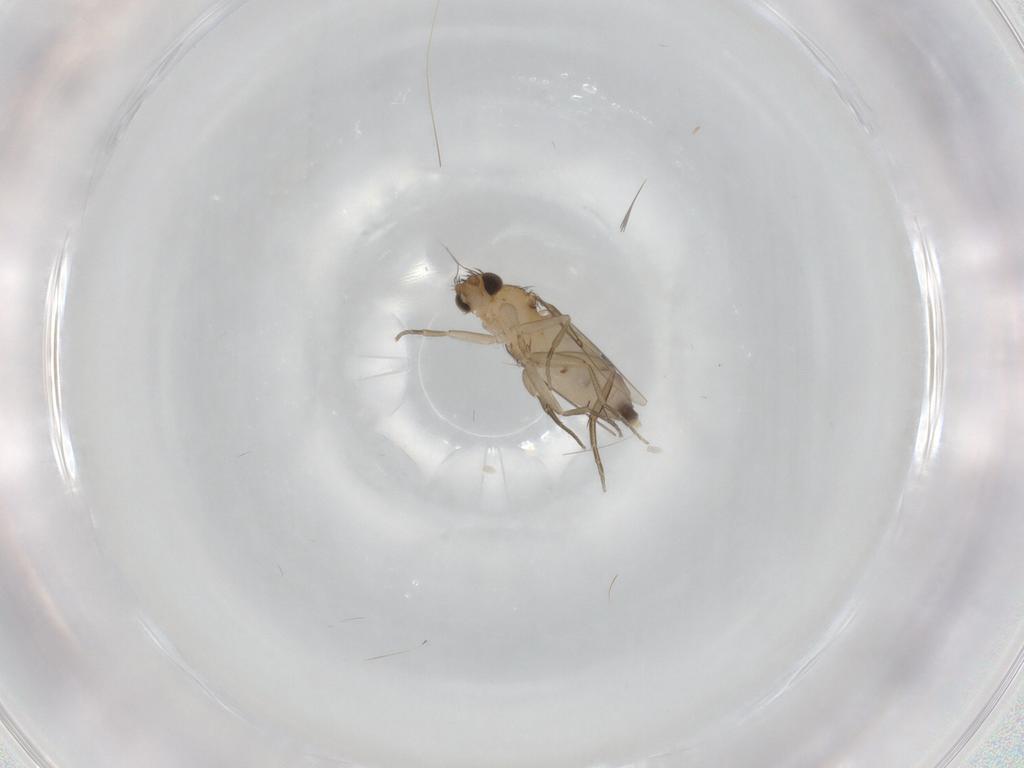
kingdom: Animalia
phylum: Arthropoda
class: Insecta
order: Diptera
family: Phoridae
